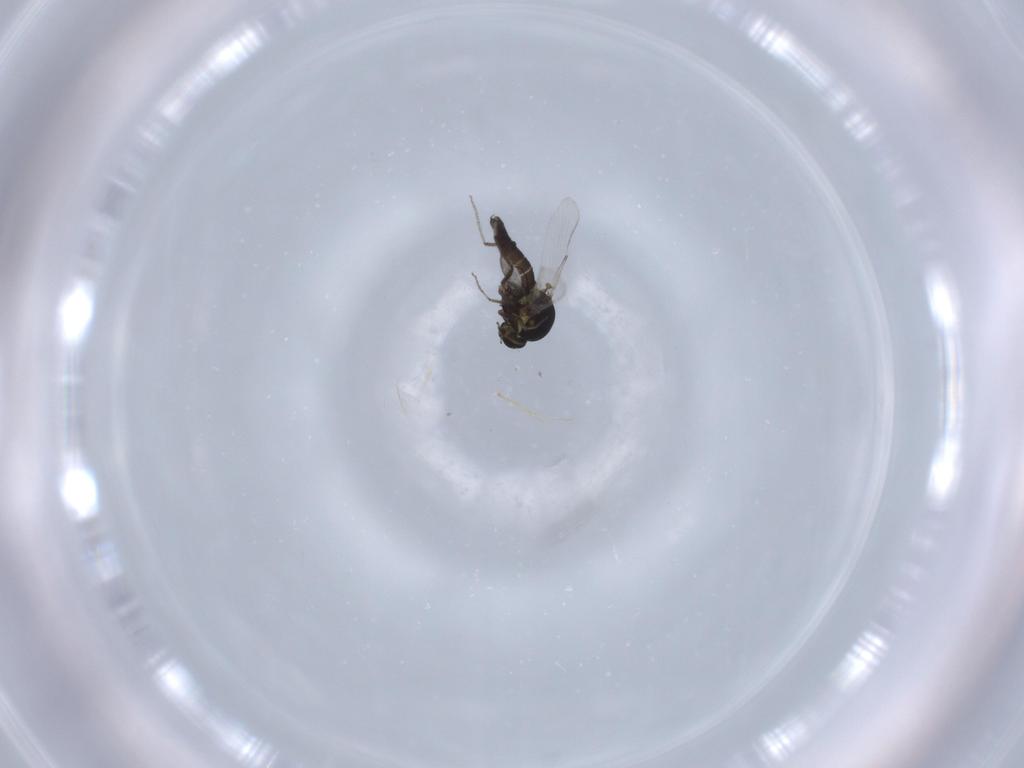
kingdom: Animalia
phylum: Arthropoda
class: Insecta
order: Diptera
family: Ceratopogonidae
